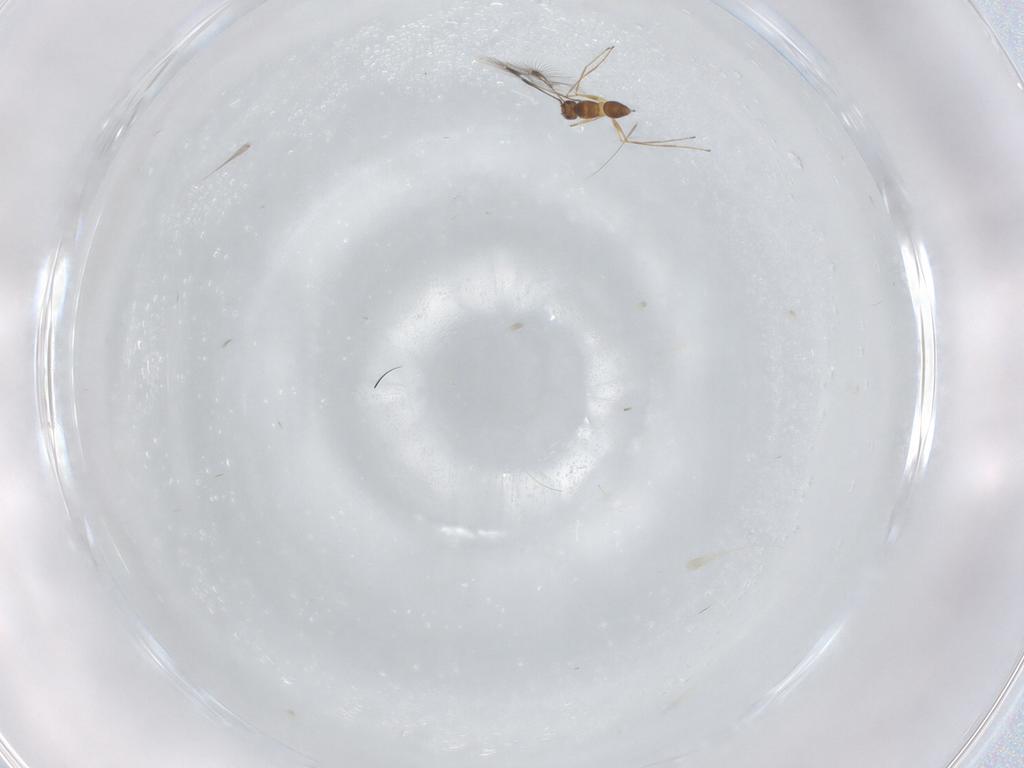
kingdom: Animalia
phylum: Arthropoda
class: Insecta
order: Hymenoptera
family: Mymaridae
